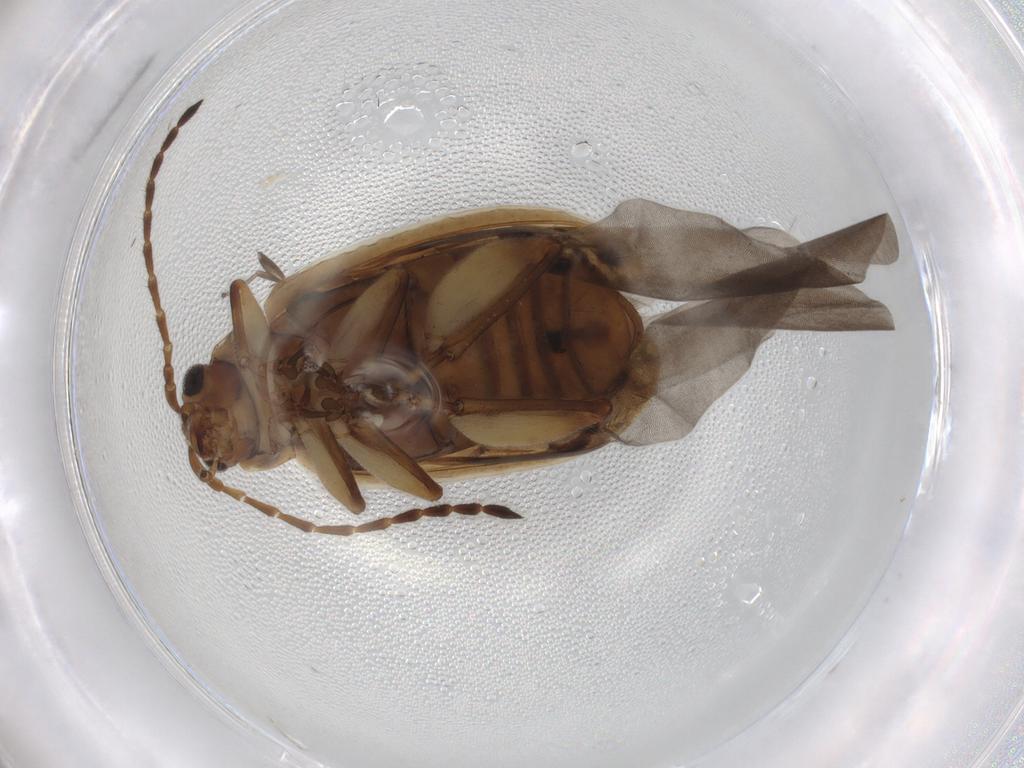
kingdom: Animalia
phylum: Arthropoda
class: Insecta
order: Coleoptera
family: Chrysomelidae
